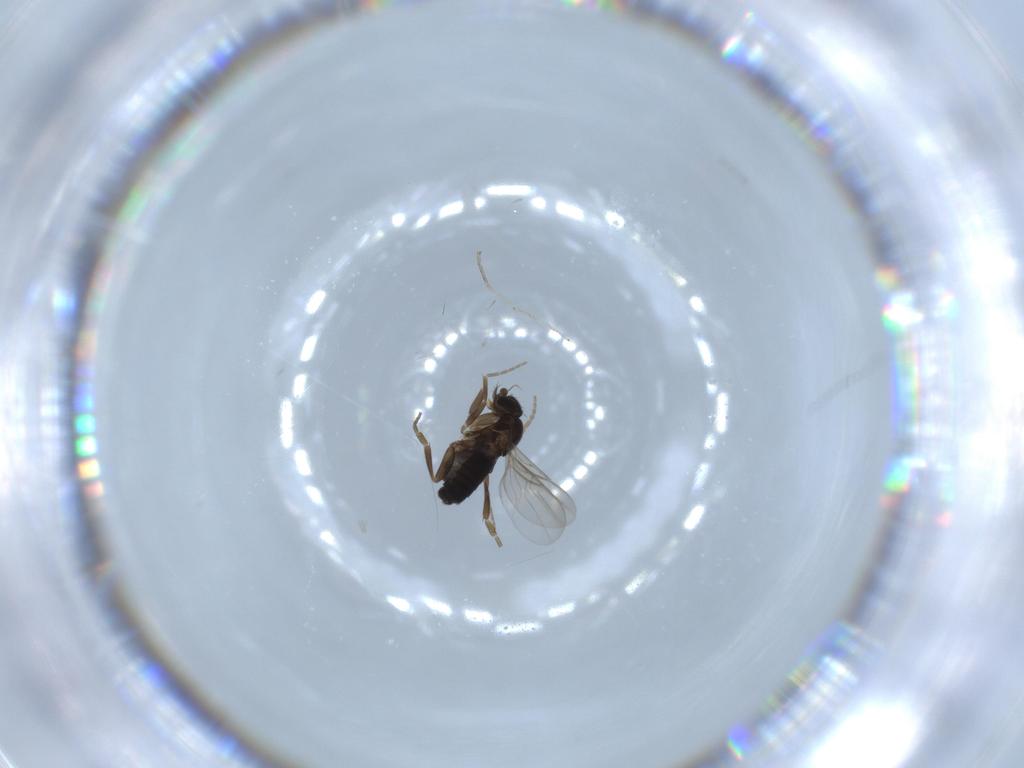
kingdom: Animalia
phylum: Arthropoda
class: Insecta
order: Diptera
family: Phoridae
